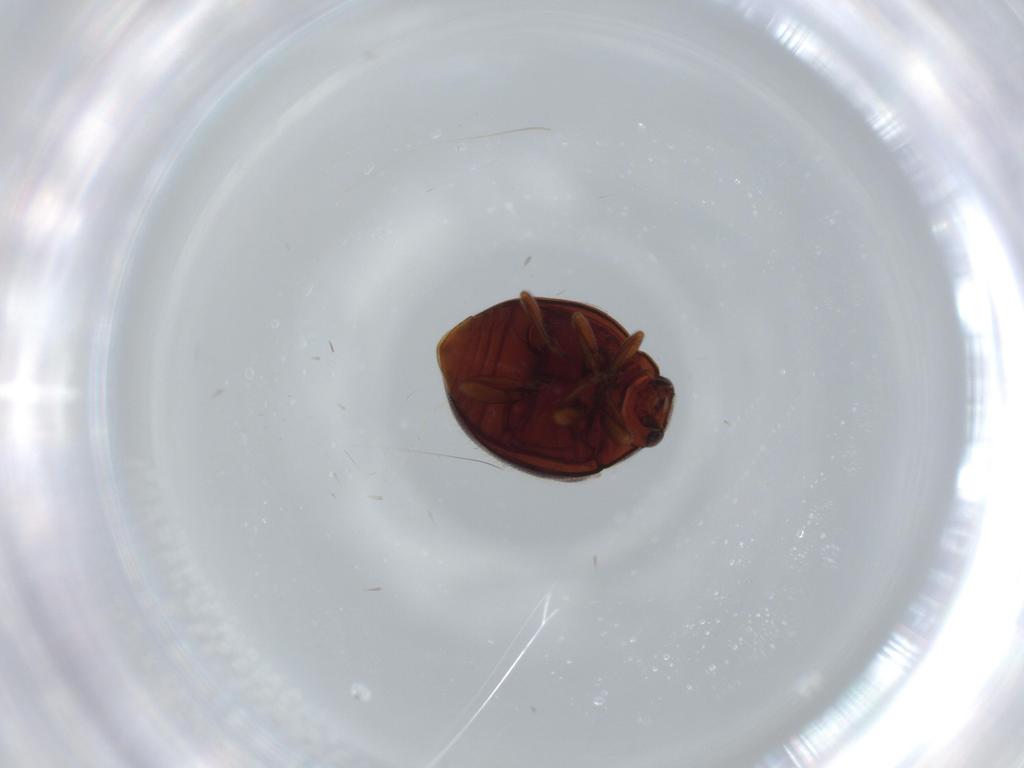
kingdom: Animalia
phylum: Arthropoda
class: Insecta
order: Coleoptera
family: Coccinellidae
